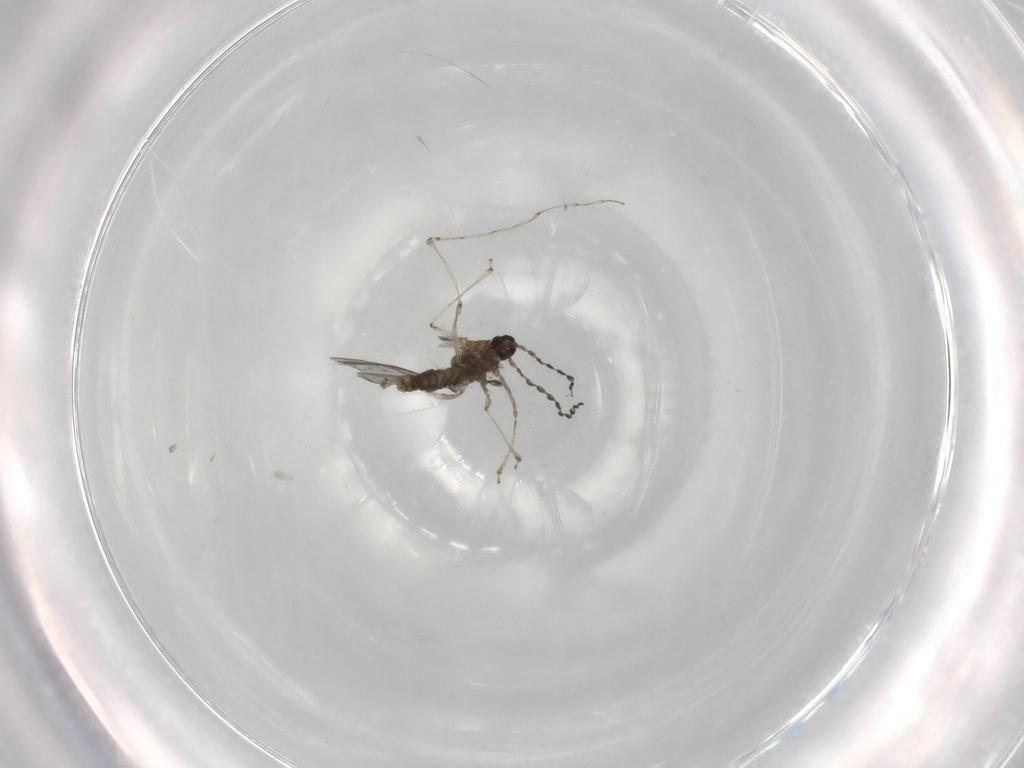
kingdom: Animalia
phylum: Arthropoda
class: Insecta
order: Diptera
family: Cecidomyiidae
